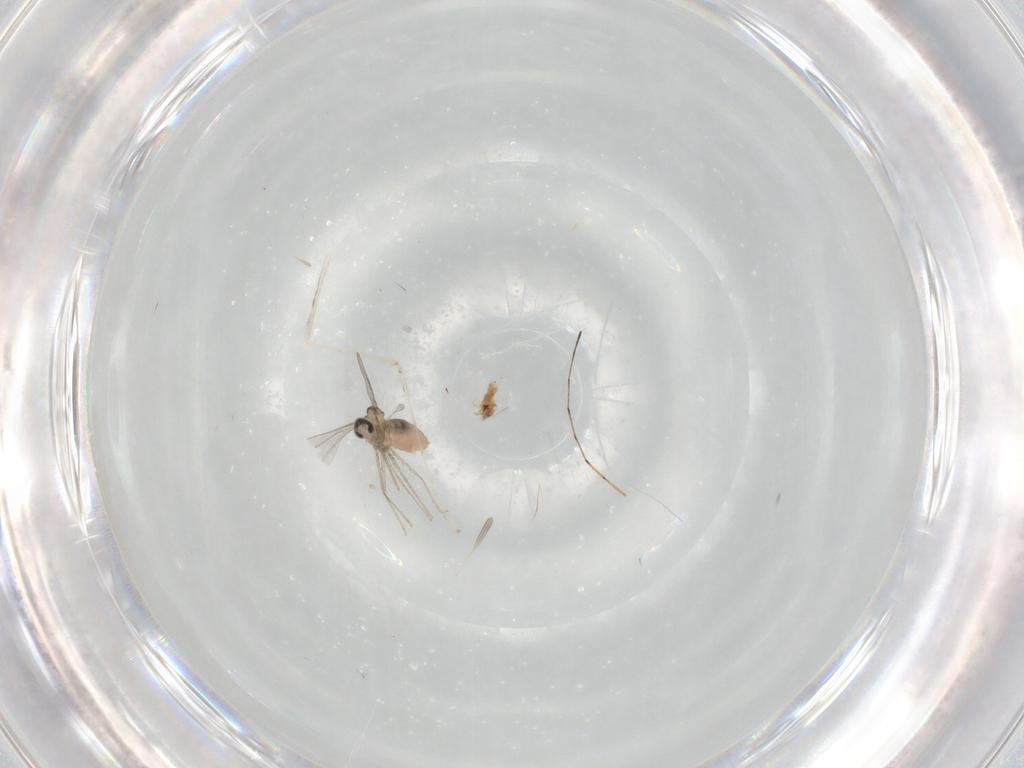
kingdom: Animalia
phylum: Arthropoda
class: Insecta
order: Diptera
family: Cecidomyiidae
